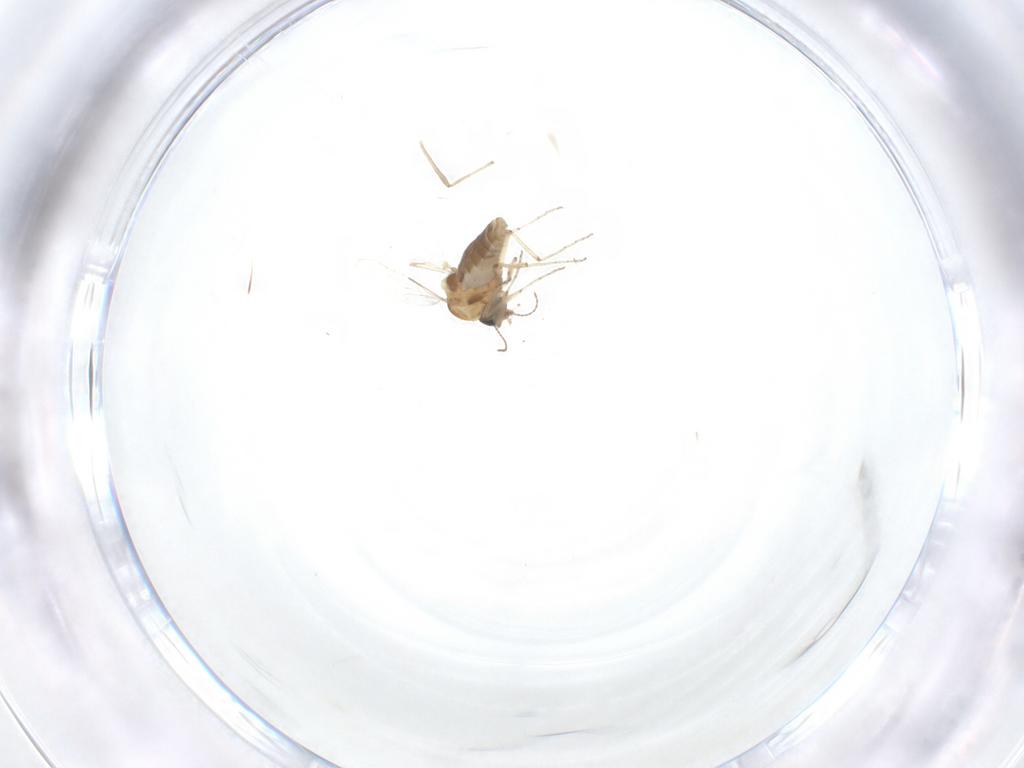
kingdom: Animalia
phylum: Arthropoda
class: Insecta
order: Diptera
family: Ceratopogonidae
